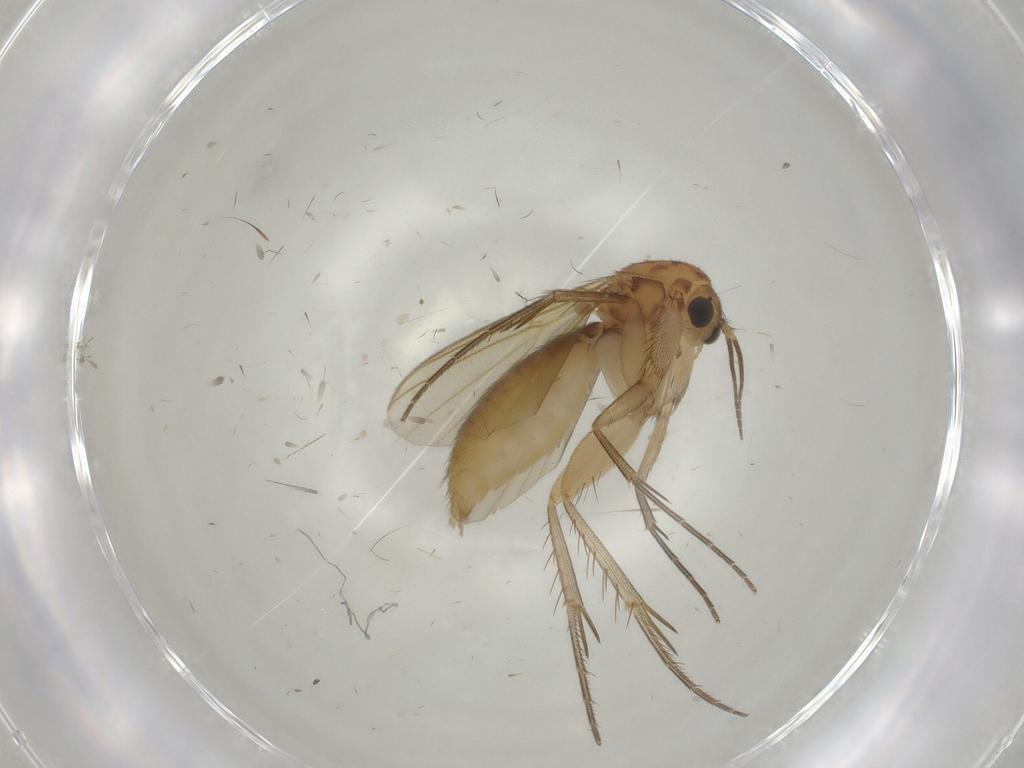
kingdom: Animalia
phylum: Arthropoda
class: Insecta
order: Diptera
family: Mycetophilidae
